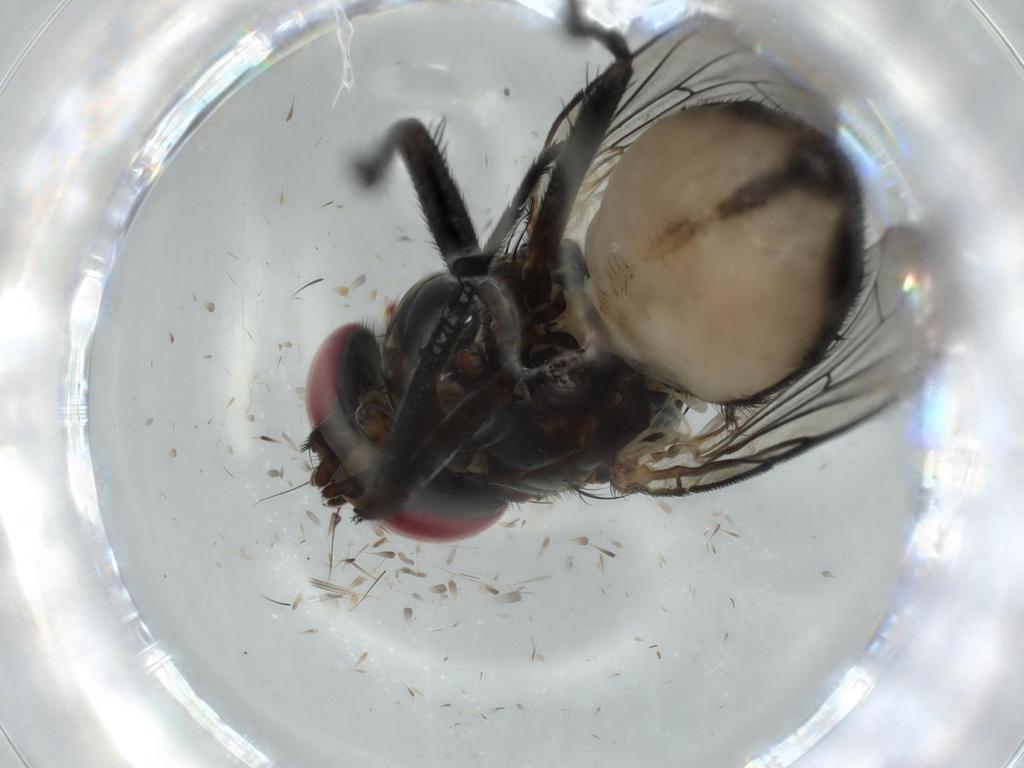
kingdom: Animalia
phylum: Arthropoda
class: Insecta
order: Diptera
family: Fannia
